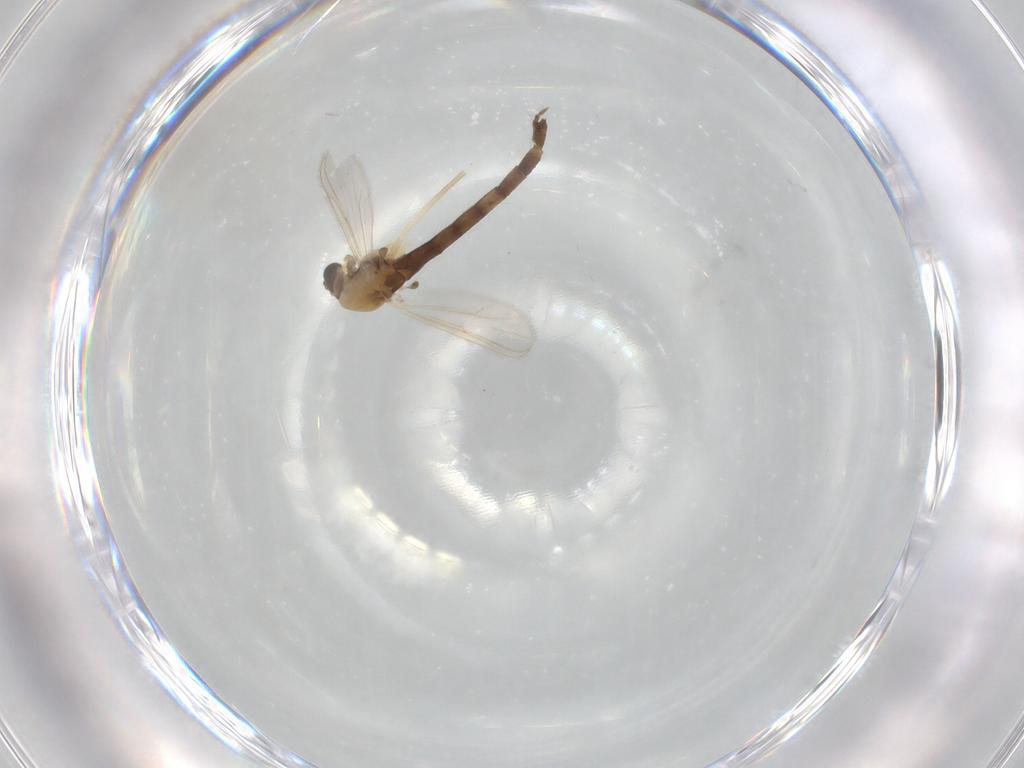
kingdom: Animalia
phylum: Arthropoda
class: Insecta
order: Diptera
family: Chironomidae
